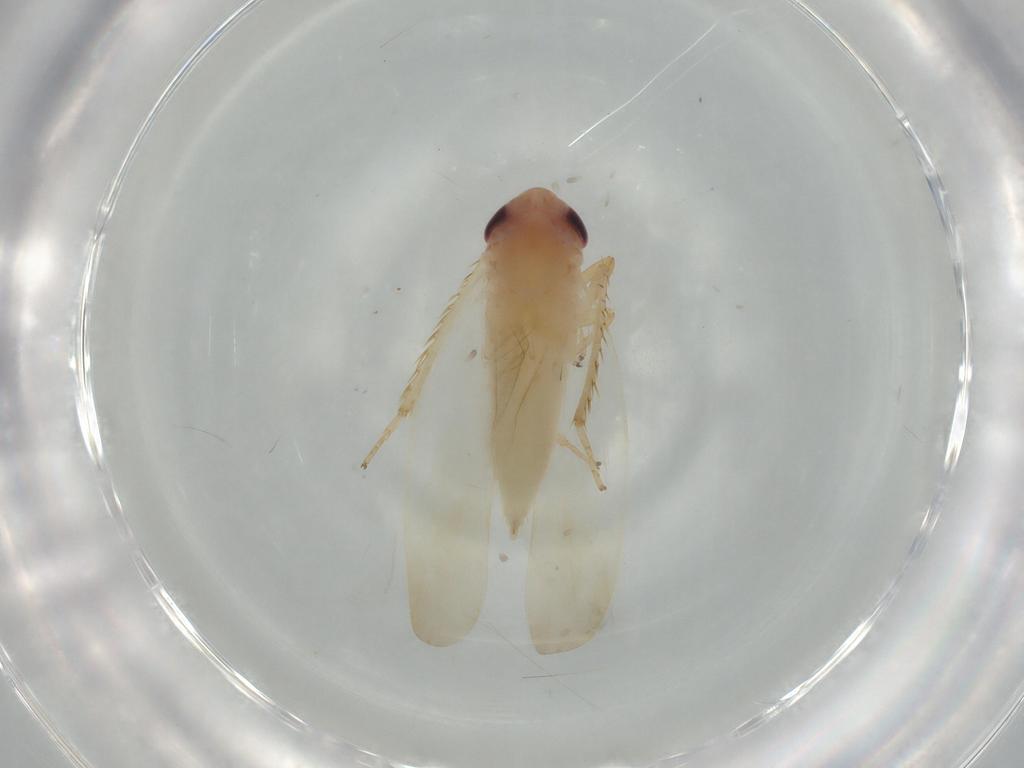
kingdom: Animalia
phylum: Arthropoda
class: Insecta
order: Hemiptera
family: Cicadellidae
